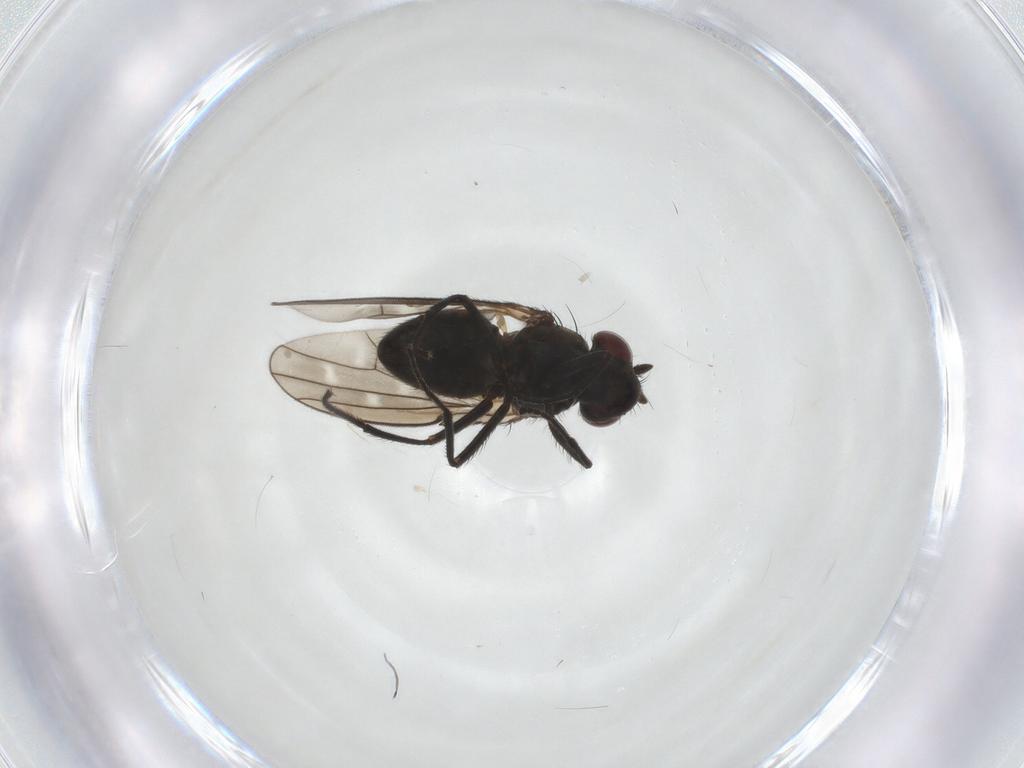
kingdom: Animalia
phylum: Arthropoda
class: Insecta
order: Diptera
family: Ephydridae
